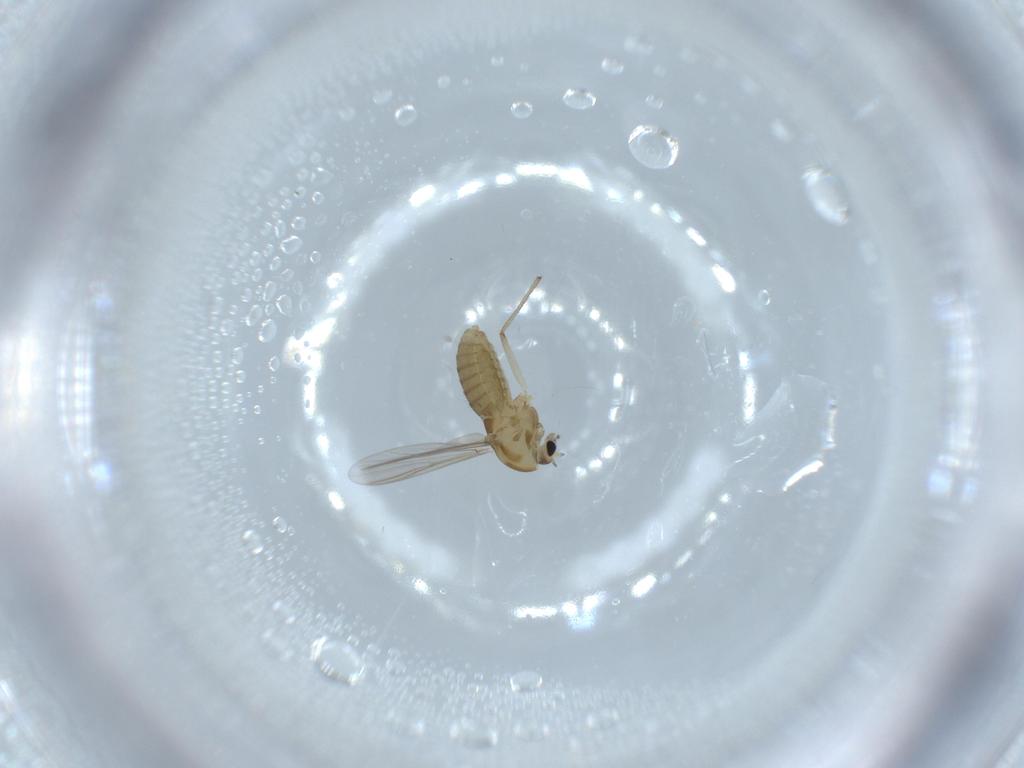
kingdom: Animalia
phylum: Arthropoda
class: Insecta
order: Diptera
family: Chironomidae
